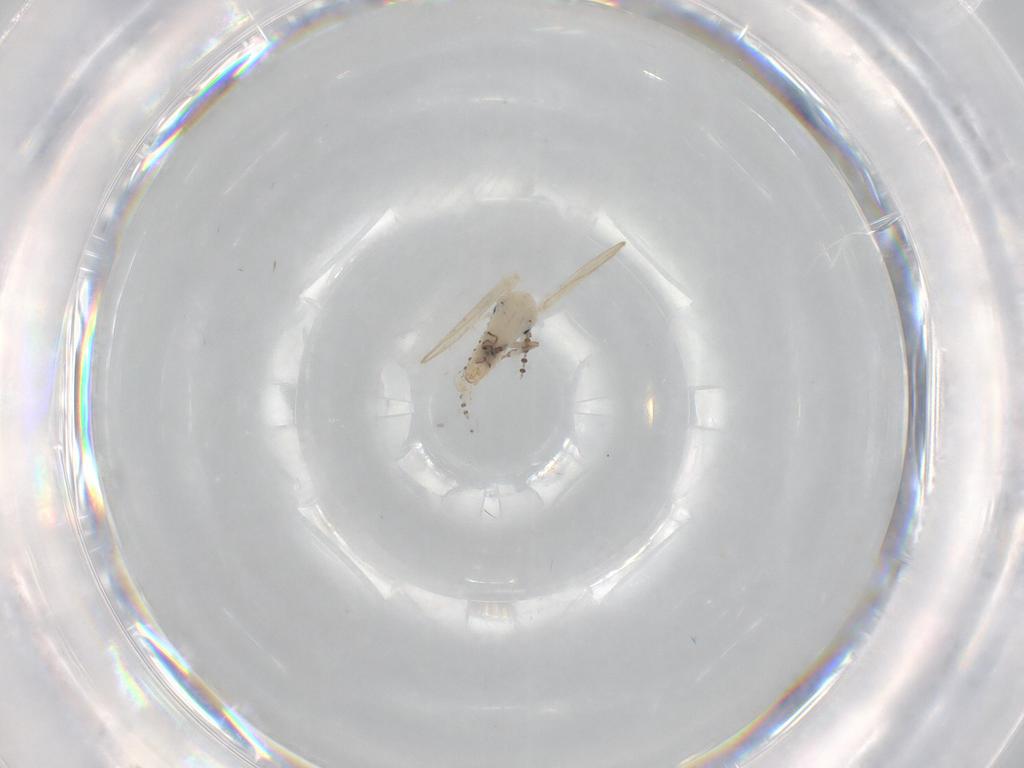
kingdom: Animalia
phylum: Arthropoda
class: Insecta
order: Diptera
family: Psychodidae
